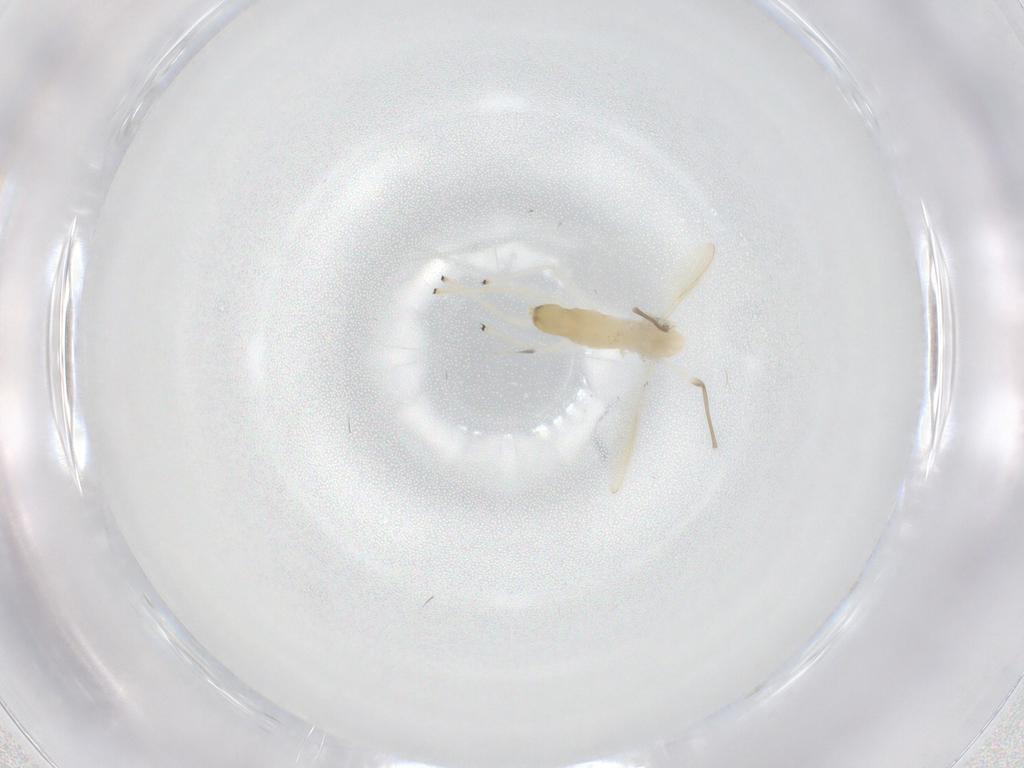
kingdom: Animalia
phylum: Arthropoda
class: Insecta
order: Diptera
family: Chironomidae
